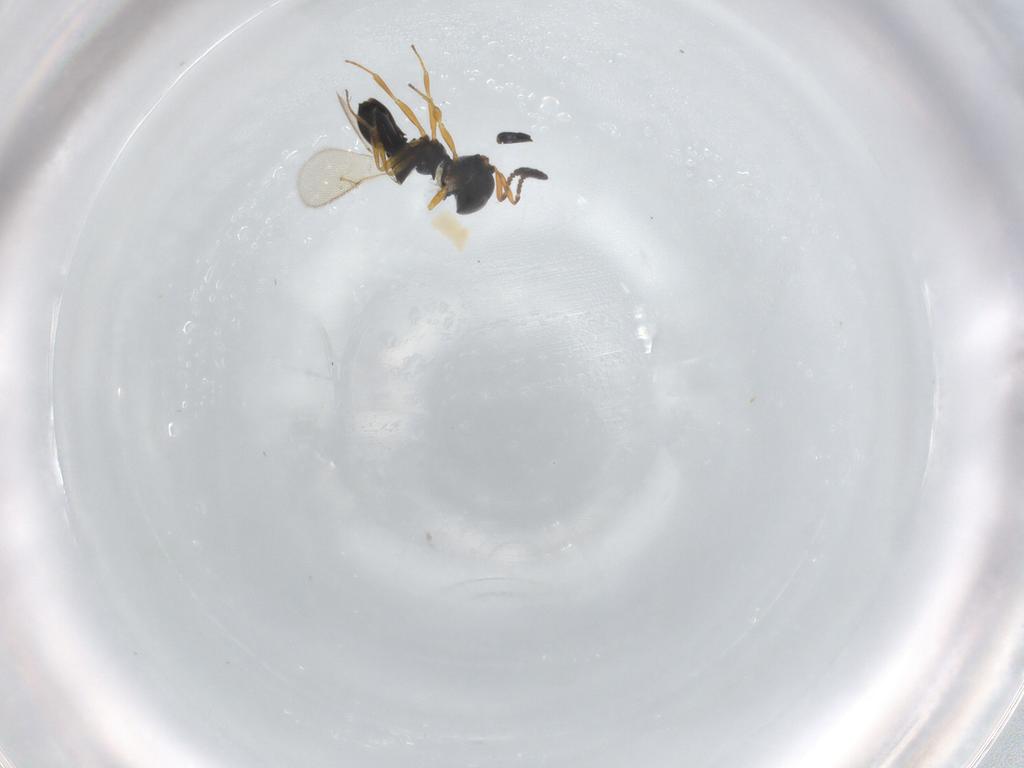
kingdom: Animalia
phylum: Arthropoda
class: Insecta
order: Hymenoptera
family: Scelionidae
